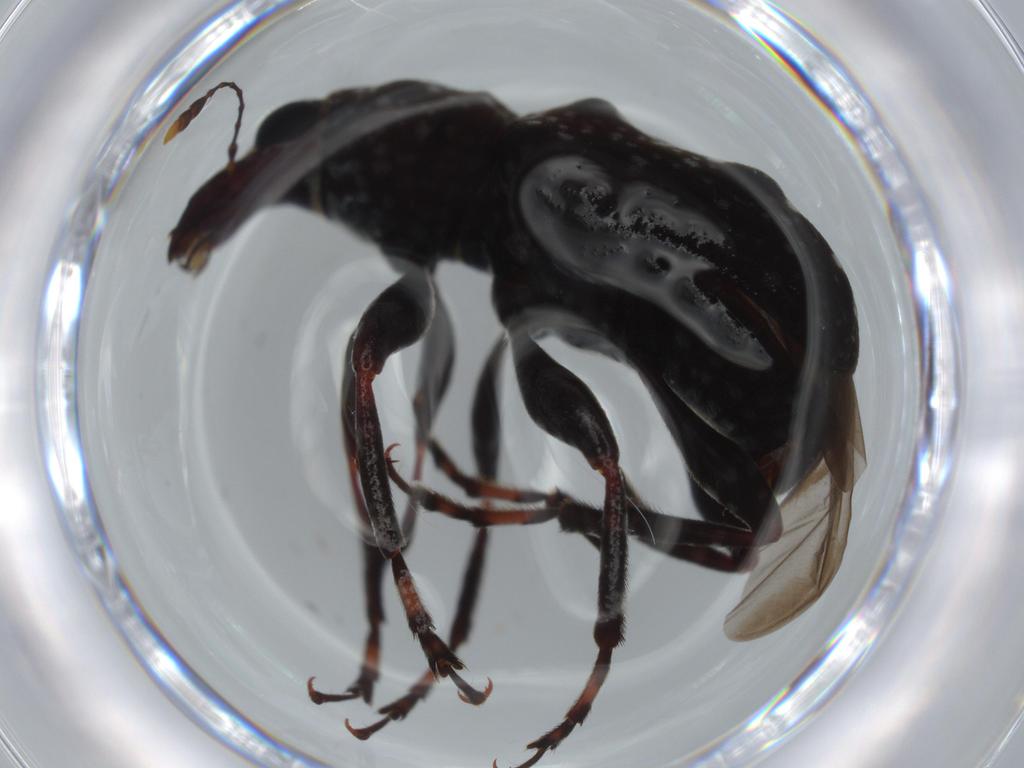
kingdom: Animalia
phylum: Arthropoda
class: Insecta
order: Coleoptera
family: Anthribidae
